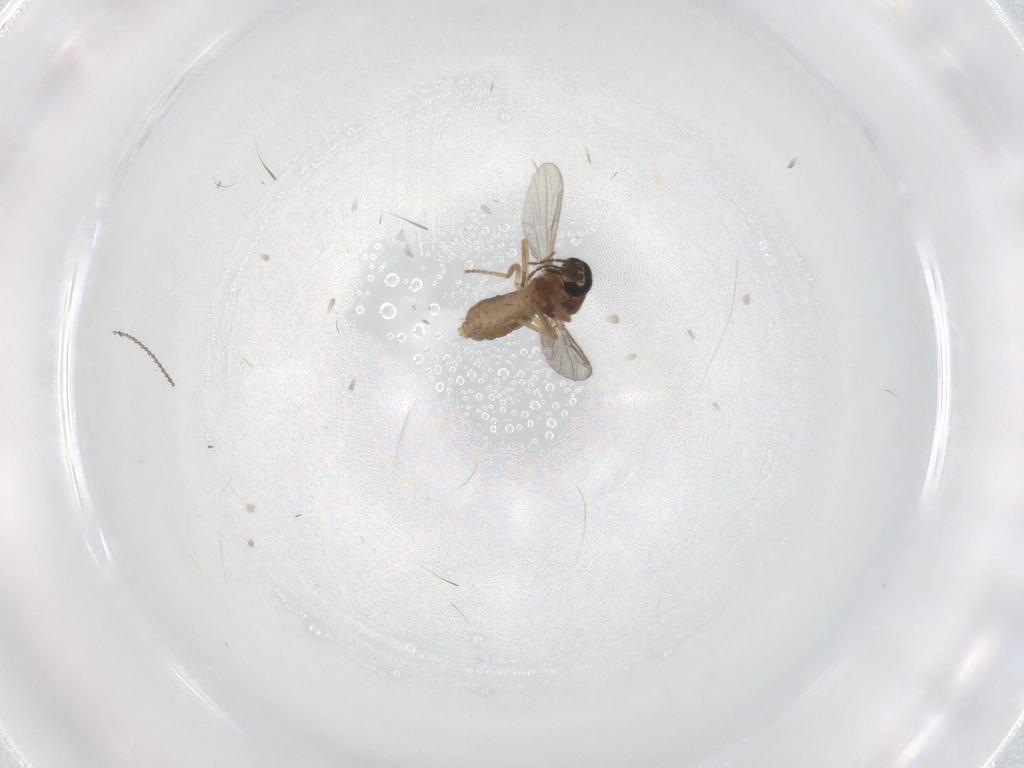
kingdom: Animalia
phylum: Arthropoda
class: Insecta
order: Diptera
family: Ceratopogonidae
